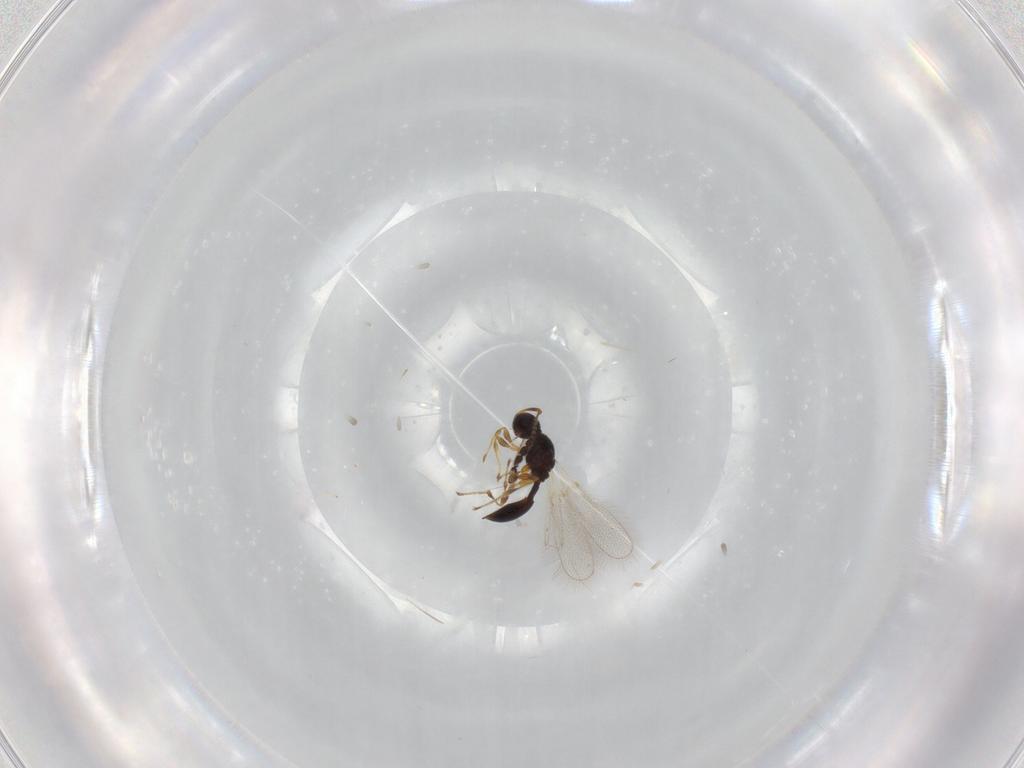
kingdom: Animalia
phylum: Arthropoda
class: Insecta
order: Hymenoptera
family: Diapriidae
